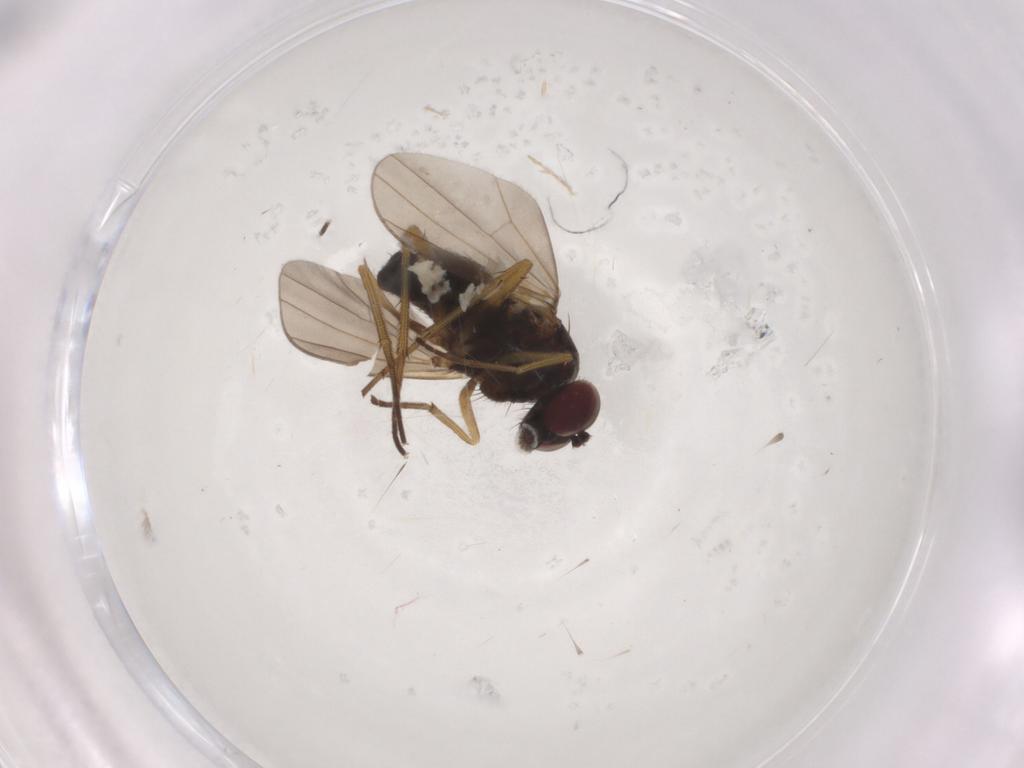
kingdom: Animalia
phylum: Arthropoda
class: Insecta
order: Diptera
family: Dolichopodidae
